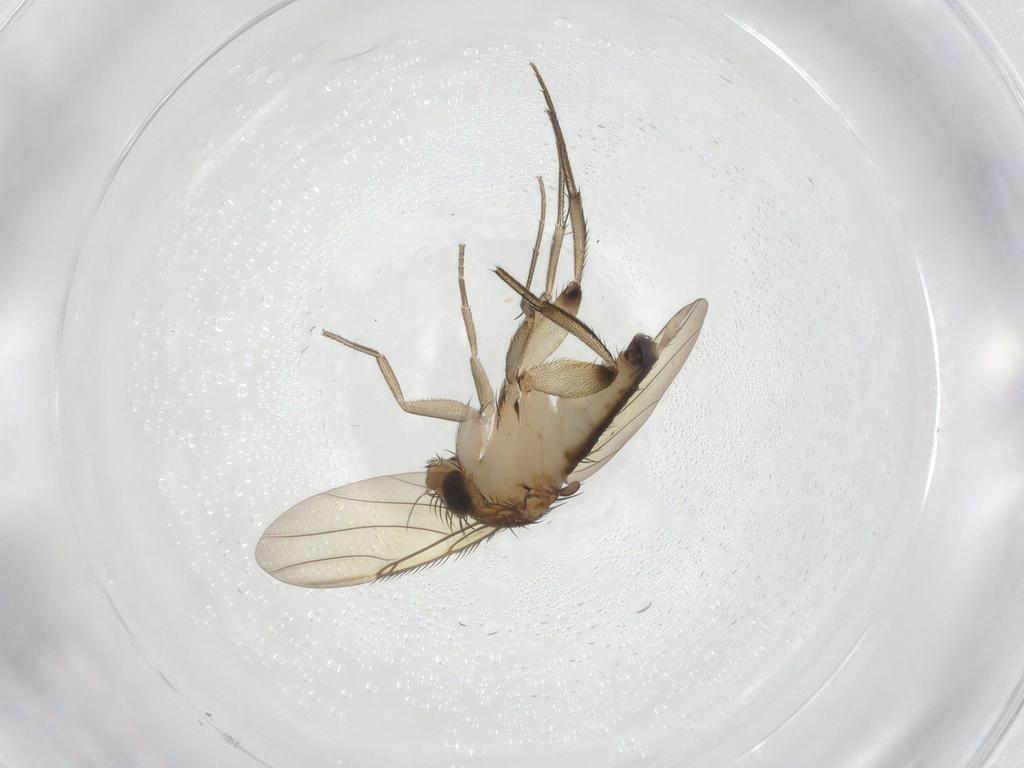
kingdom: Animalia
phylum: Arthropoda
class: Insecta
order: Diptera
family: Phoridae
